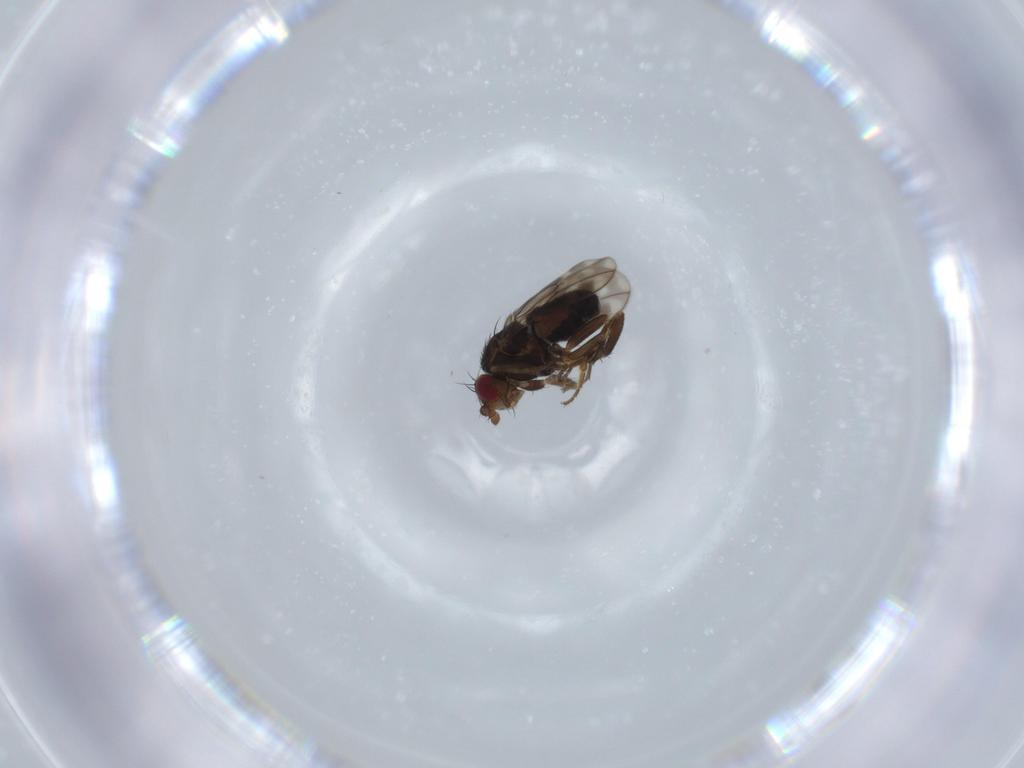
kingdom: Animalia
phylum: Arthropoda
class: Insecta
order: Diptera
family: Sphaeroceridae
